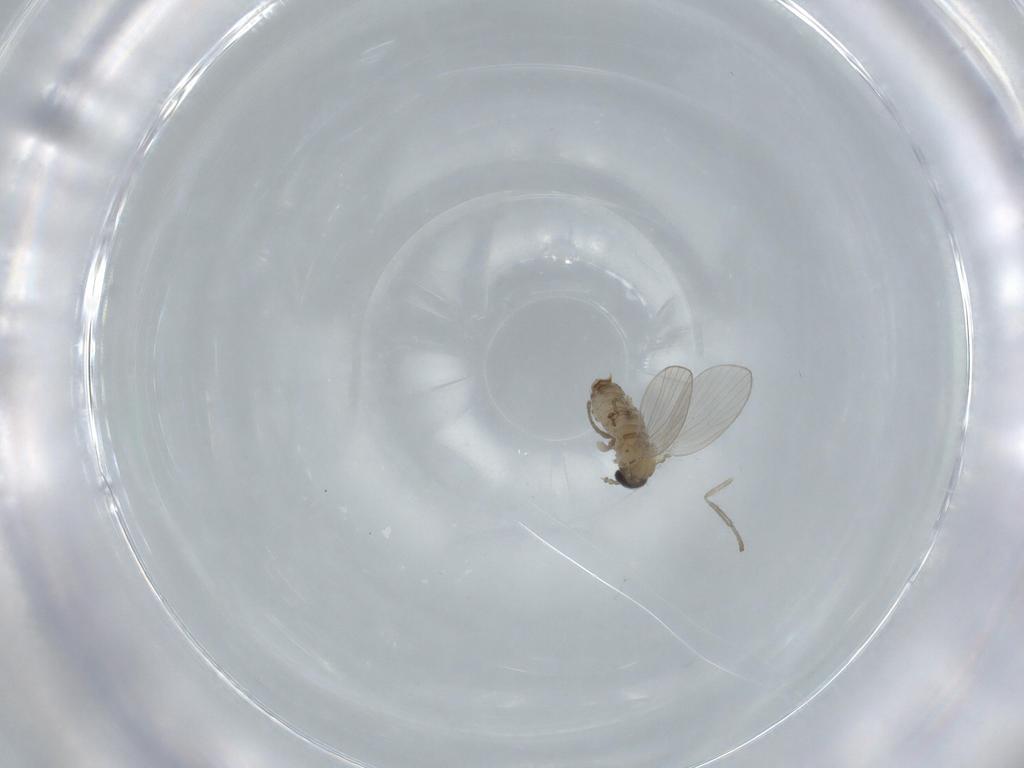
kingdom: Animalia
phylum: Arthropoda
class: Insecta
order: Diptera
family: Psychodidae
